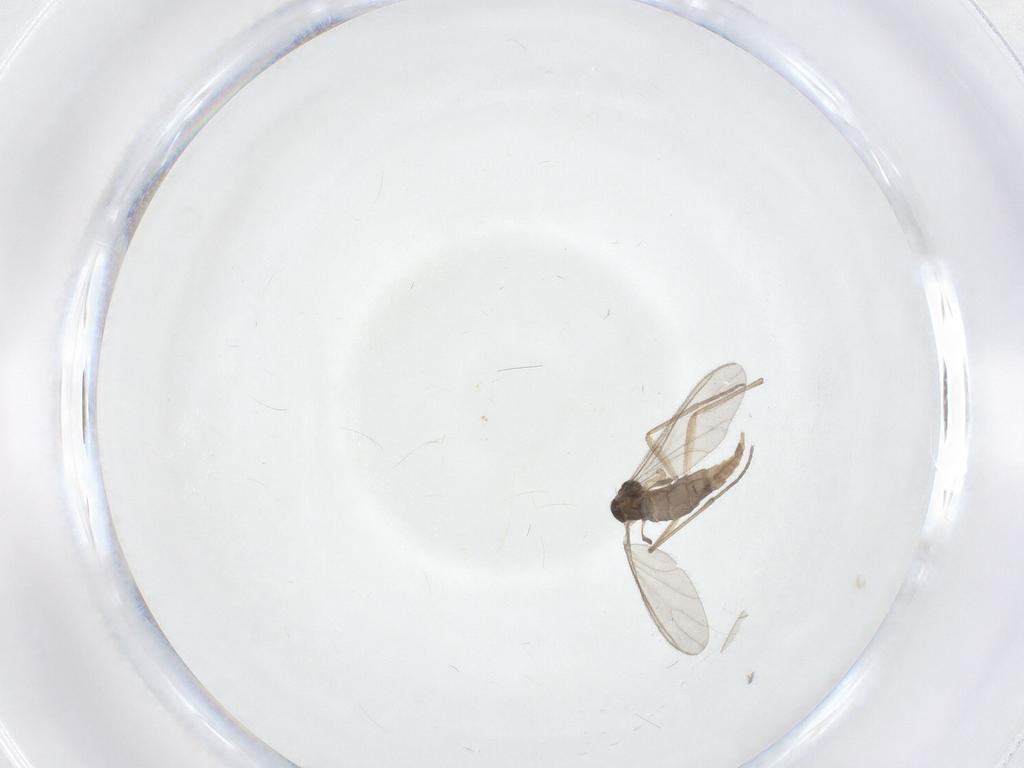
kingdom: Animalia
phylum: Arthropoda
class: Insecta
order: Diptera
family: Sciaridae
